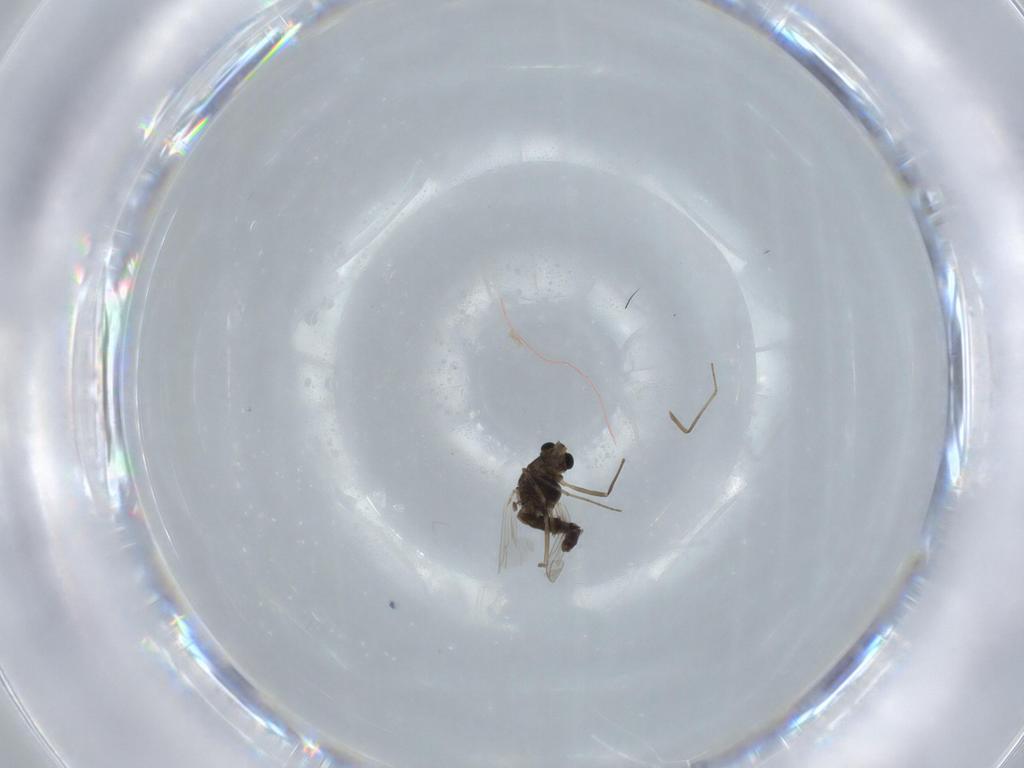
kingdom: Animalia
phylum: Arthropoda
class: Insecta
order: Diptera
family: Chironomidae
